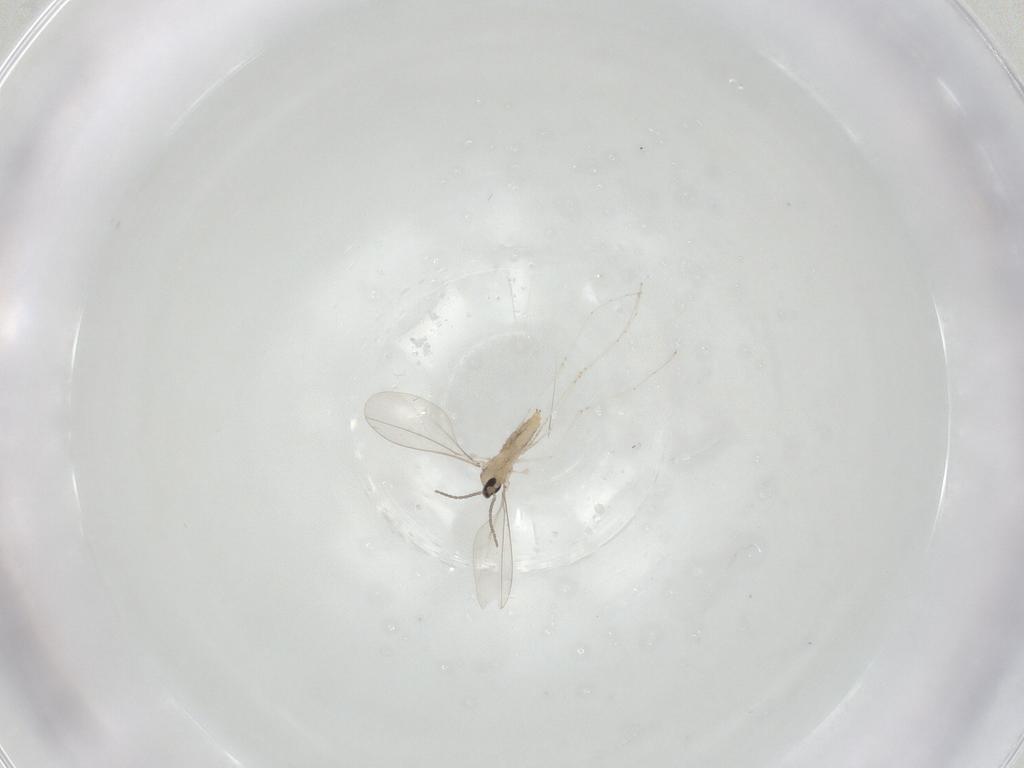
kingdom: Animalia
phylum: Arthropoda
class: Insecta
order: Diptera
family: Cecidomyiidae
